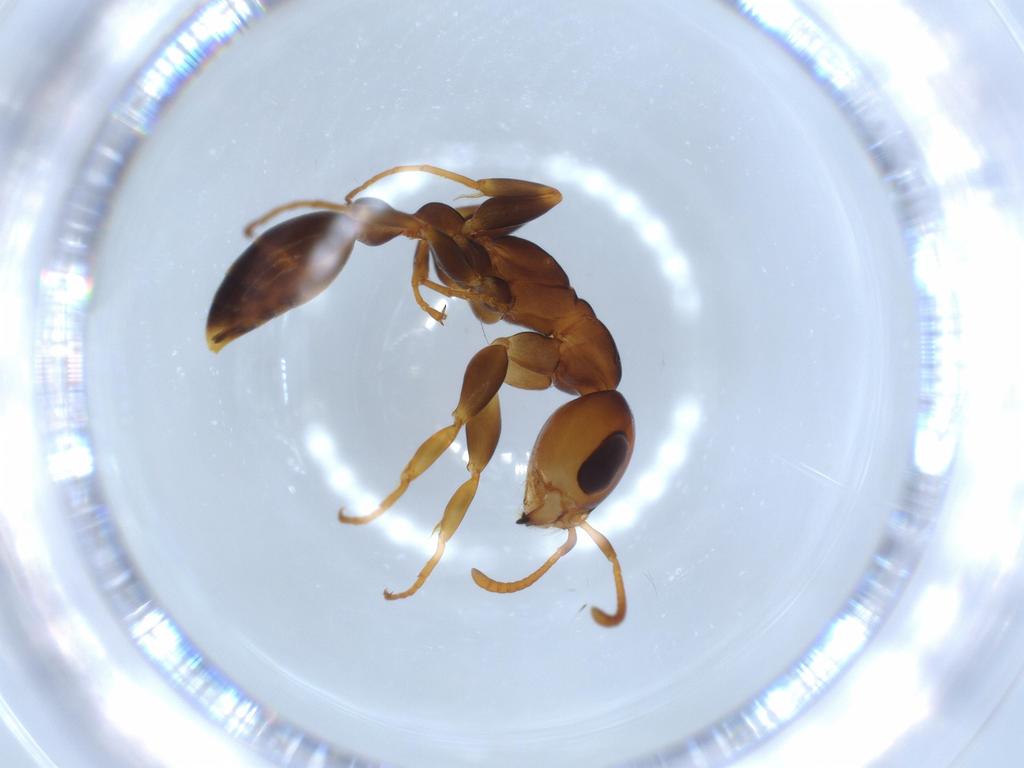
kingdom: Animalia
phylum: Arthropoda
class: Insecta
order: Hymenoptera
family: Formicidae
